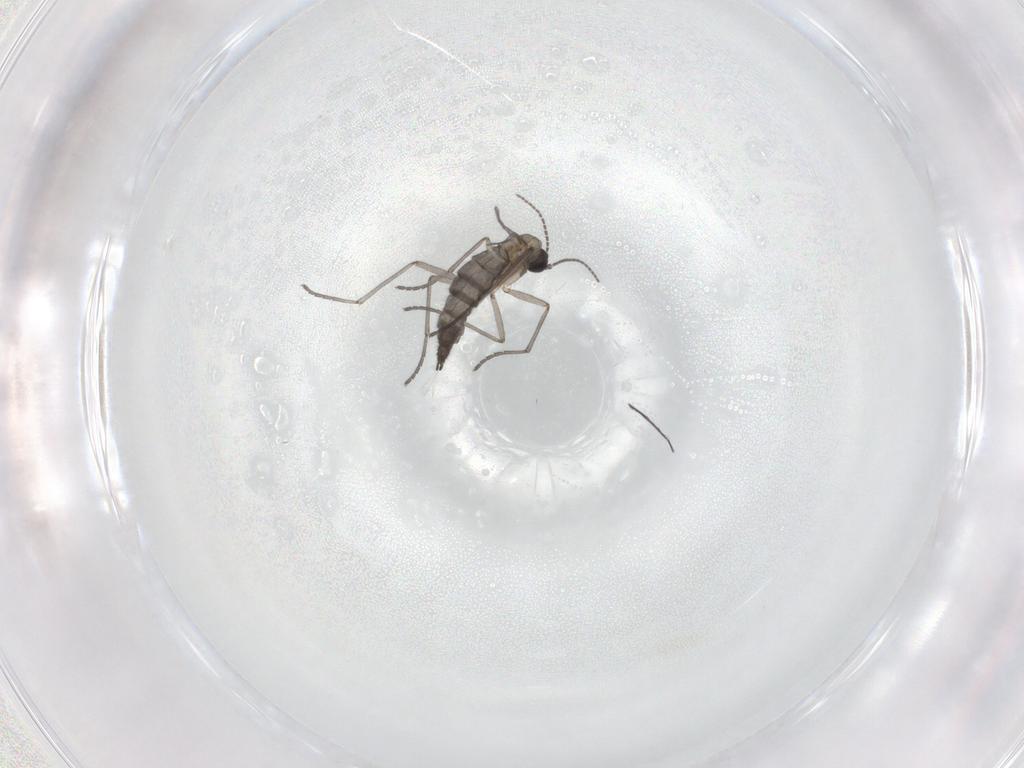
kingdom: Animalia
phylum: Arthropoda
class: Insecta
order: Diptera
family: Sciaridae
